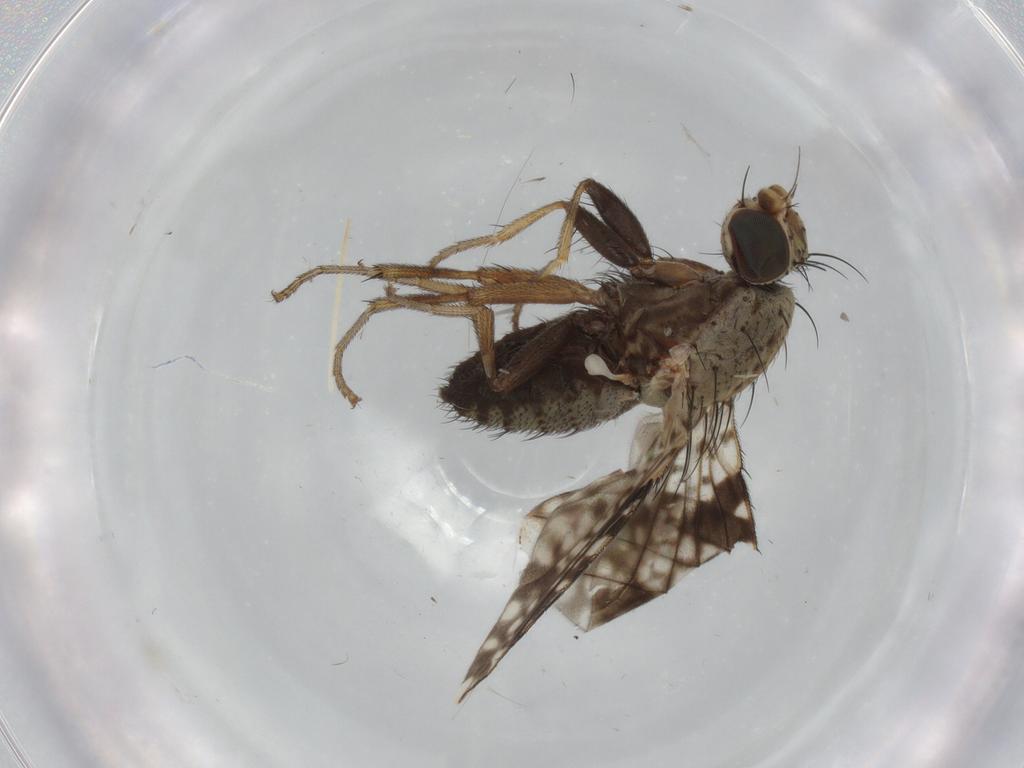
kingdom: Animalia
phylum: Arthropoda
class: Insecta
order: Diptera
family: Tephritidae
